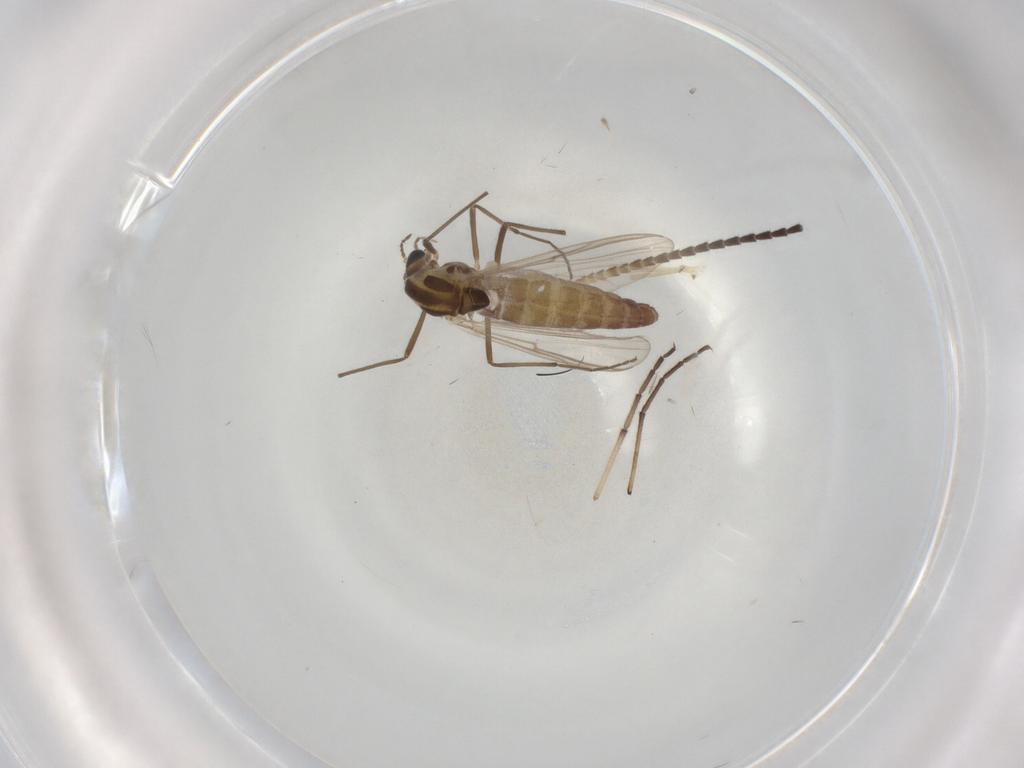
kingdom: Animalia
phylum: Arthropoda
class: Insecta
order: Diptera
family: Chironomidae
